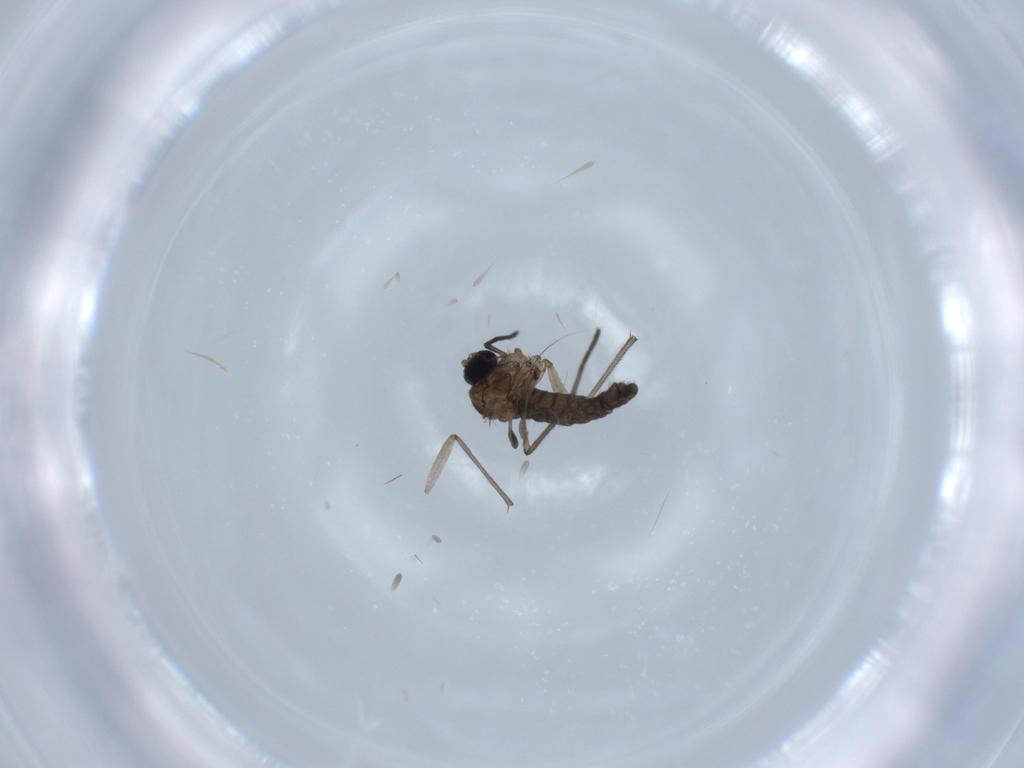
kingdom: Animalia
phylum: Arthropoda
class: Insecta
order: Diptera
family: Sciaridae
